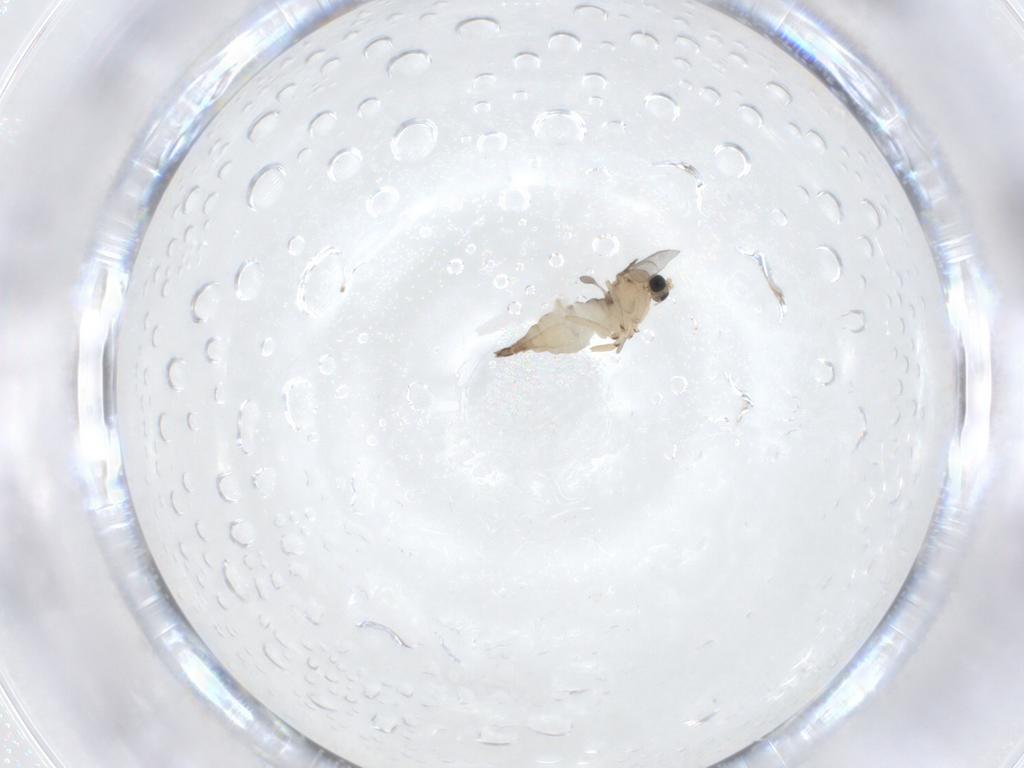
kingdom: Animalia
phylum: Arthropoda
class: Insecta
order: Diptera
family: Sciaridae
